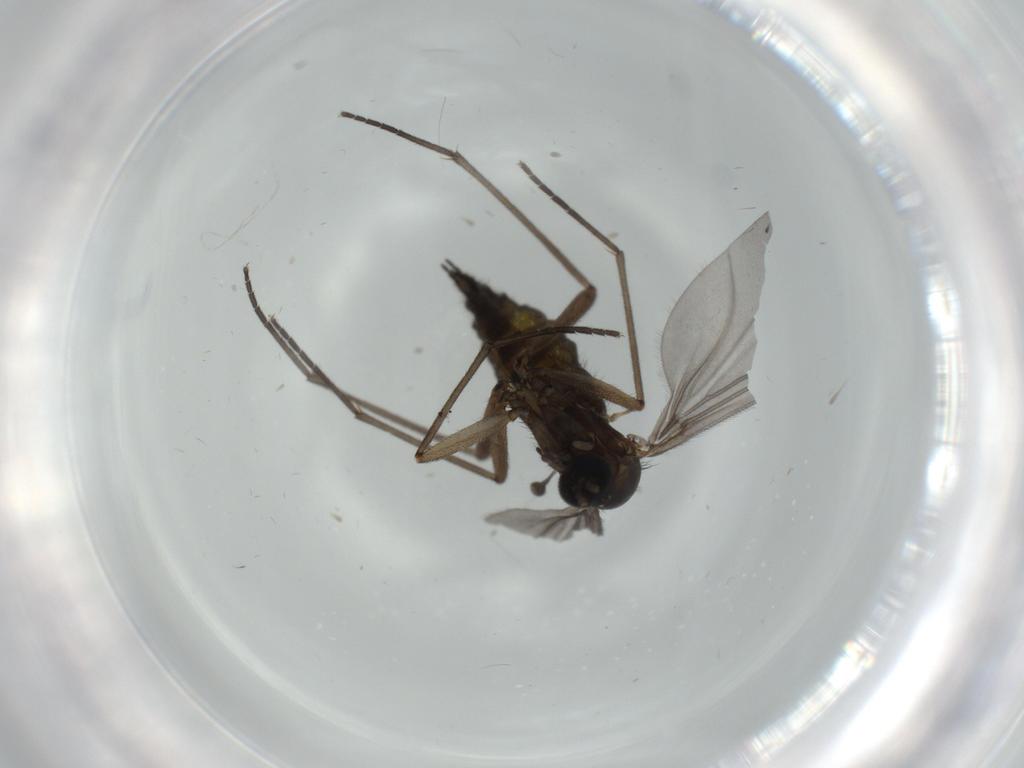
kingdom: Animalia
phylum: Arthropoda
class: Insecta
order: Diptera
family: Sciaridae
